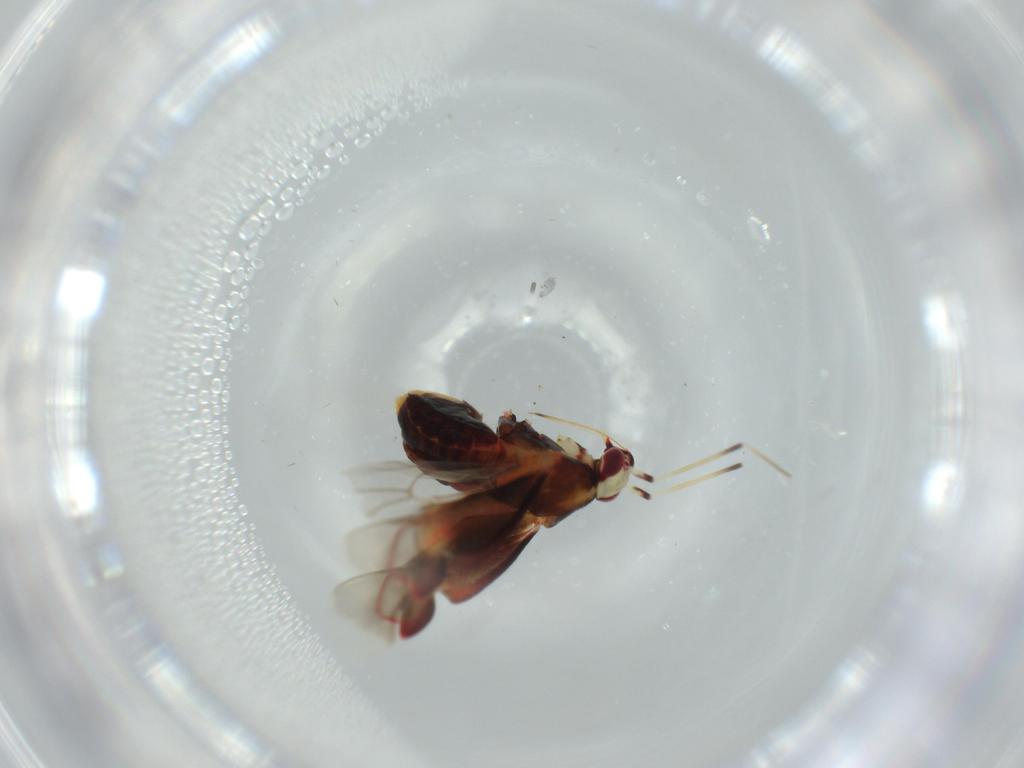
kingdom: Animalia
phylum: Arthropoda
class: Insecta
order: Hemiptera
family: Miridae
